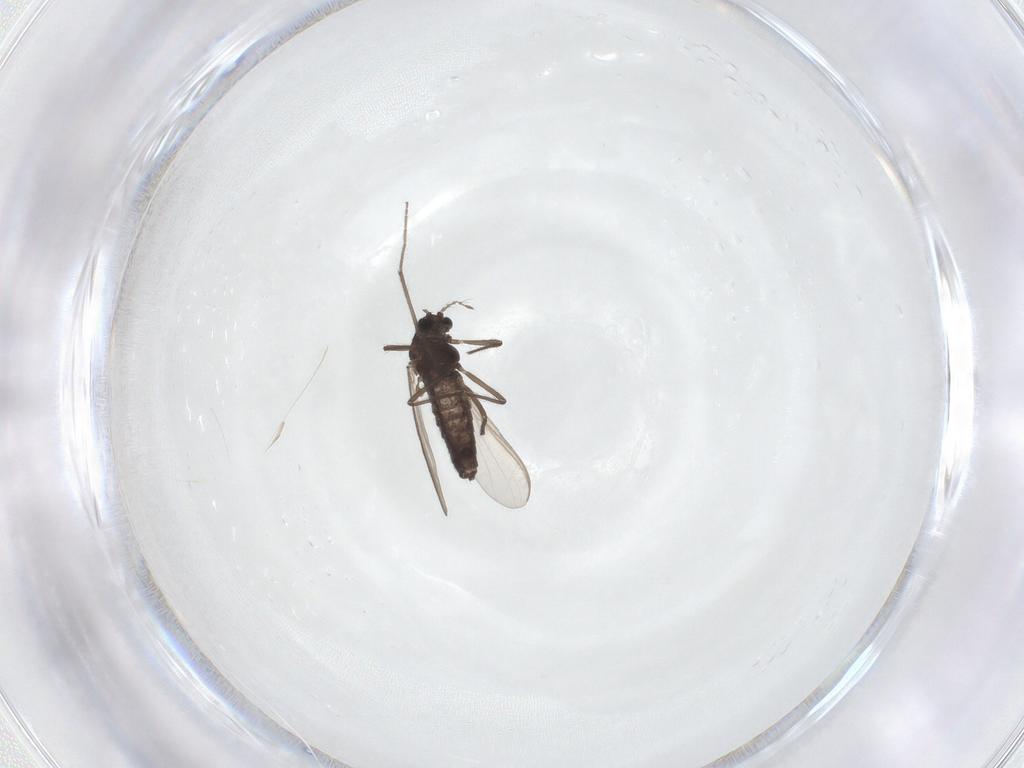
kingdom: Animalia
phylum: Arthropoda
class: Insecta
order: Diptera
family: Chironomidae
